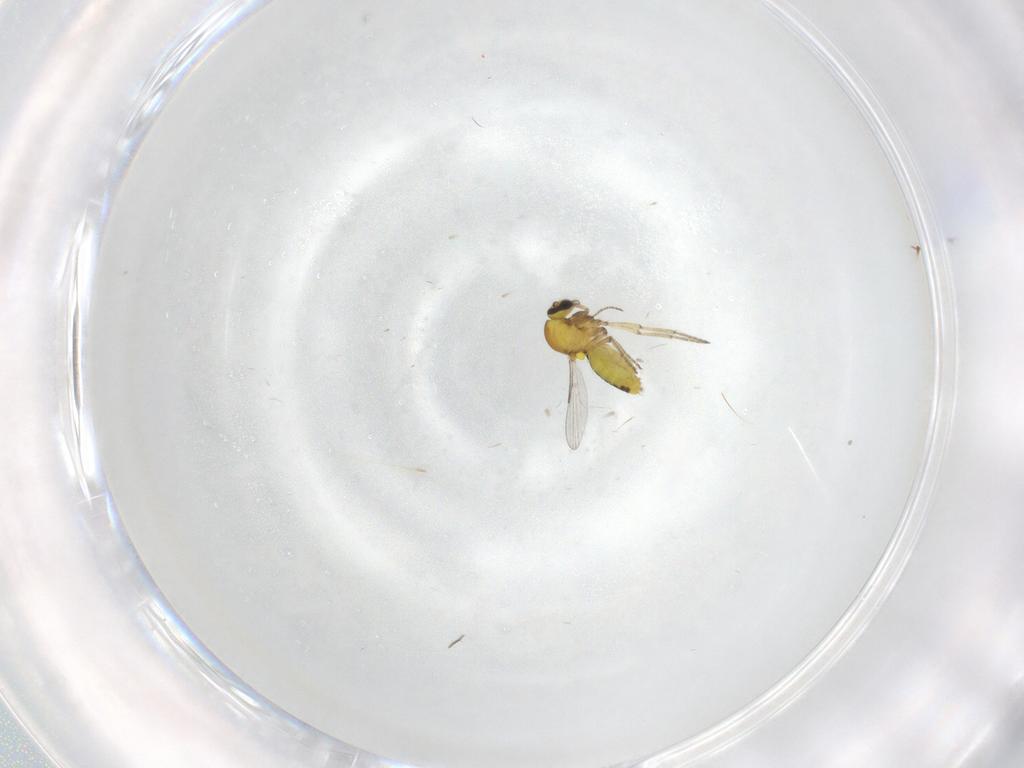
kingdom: Animalia
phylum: Arthropoda
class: Insecta
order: Diptera
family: Ceratopogonidae
